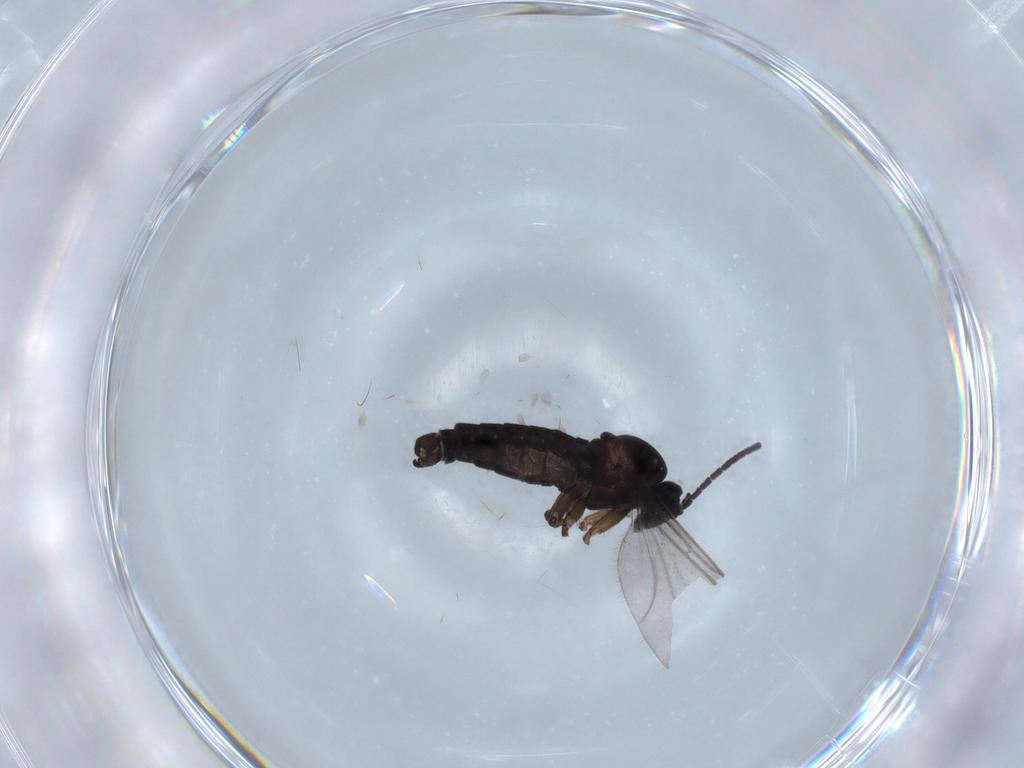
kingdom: Animalia
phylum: Arthropoda
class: Insecta
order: Diptera
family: Sciaridae
